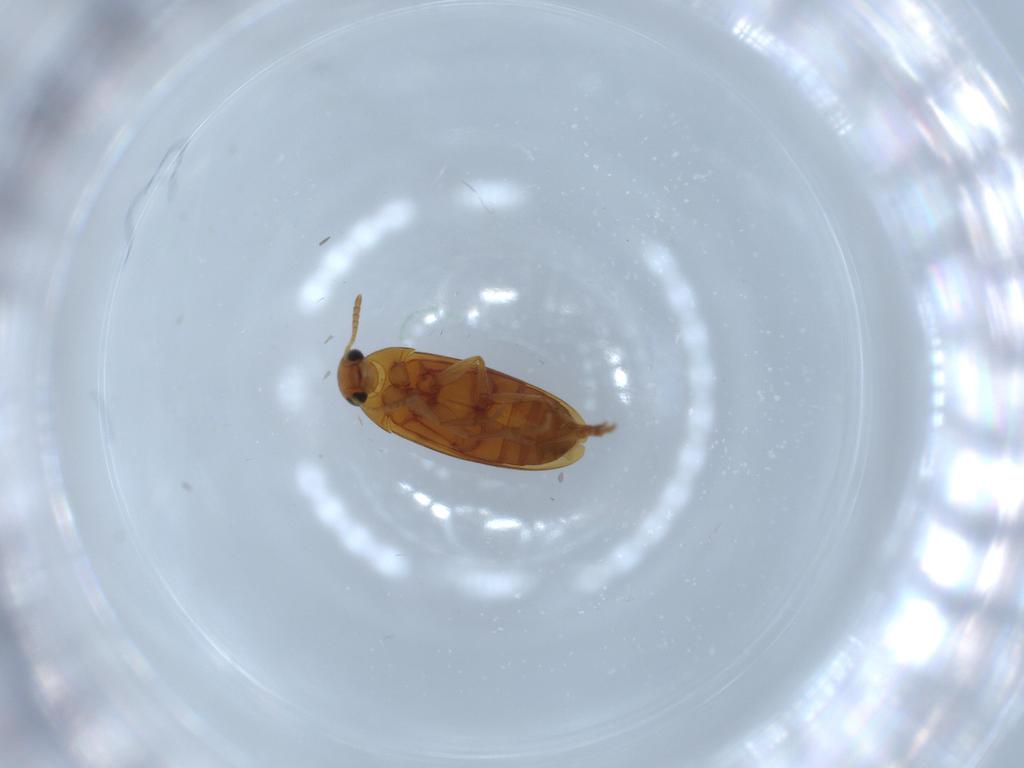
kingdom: Animalia
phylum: Arthropoda
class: Insecta
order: Coleoptera
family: Scraptiidae
